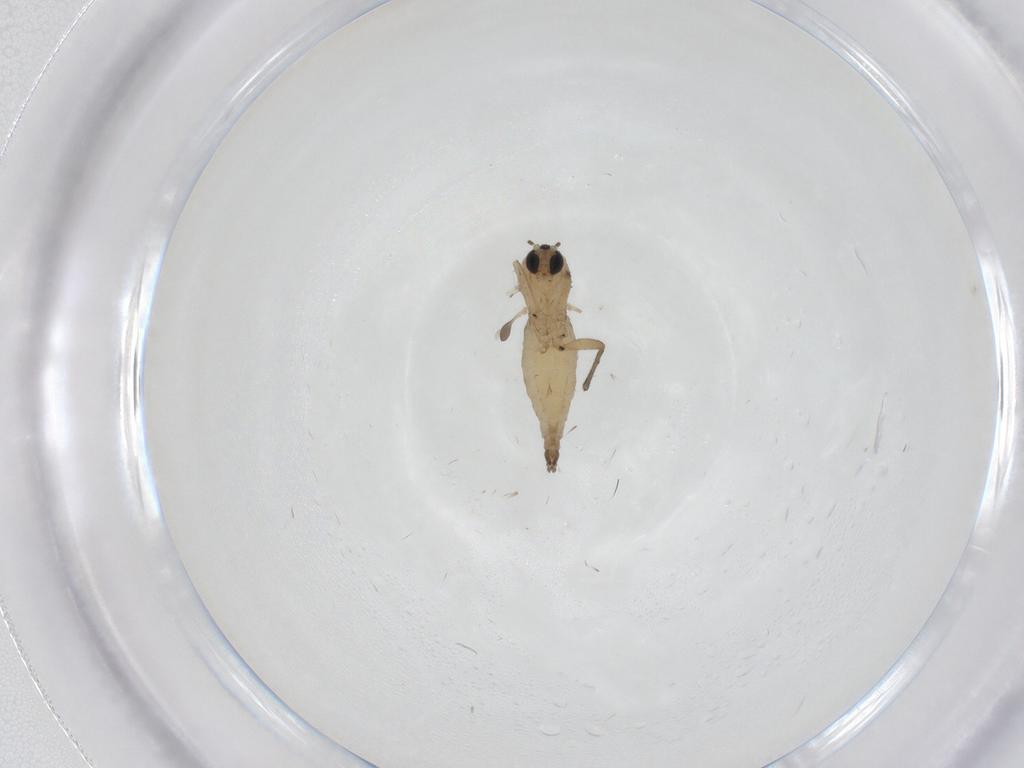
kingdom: Animalia
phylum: Arthropoda
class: Insecta
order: Diptera
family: Sciaridae
